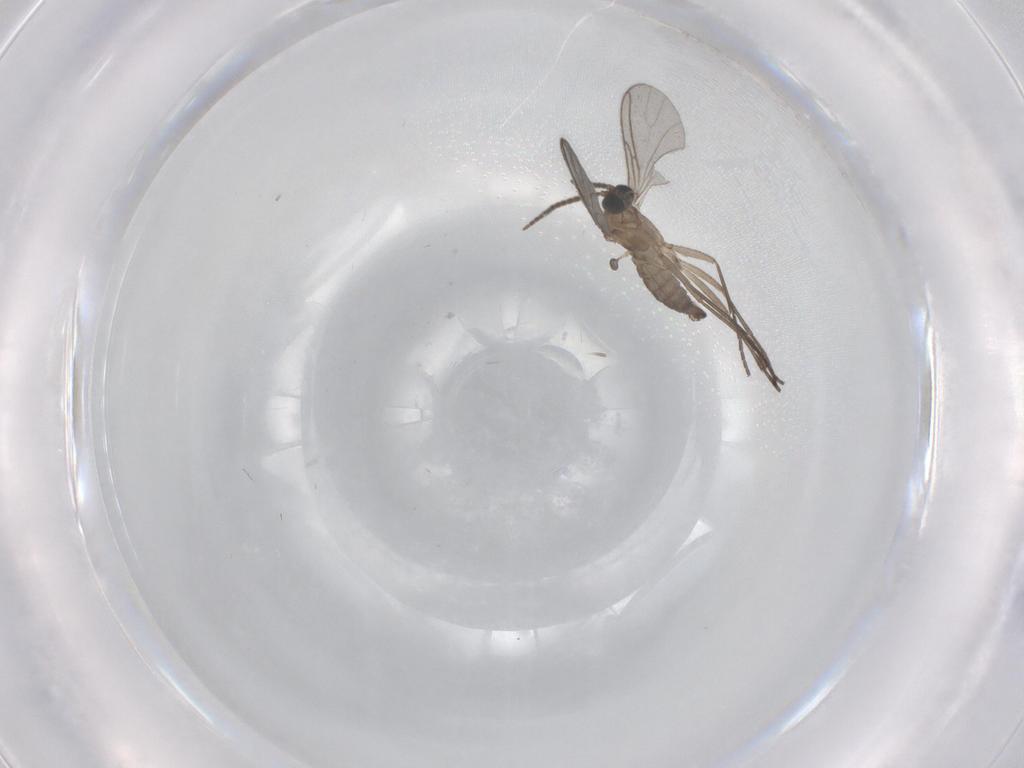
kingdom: Animalia
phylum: Arthropoda
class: Insecta
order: Diptera
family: Sciaridae
